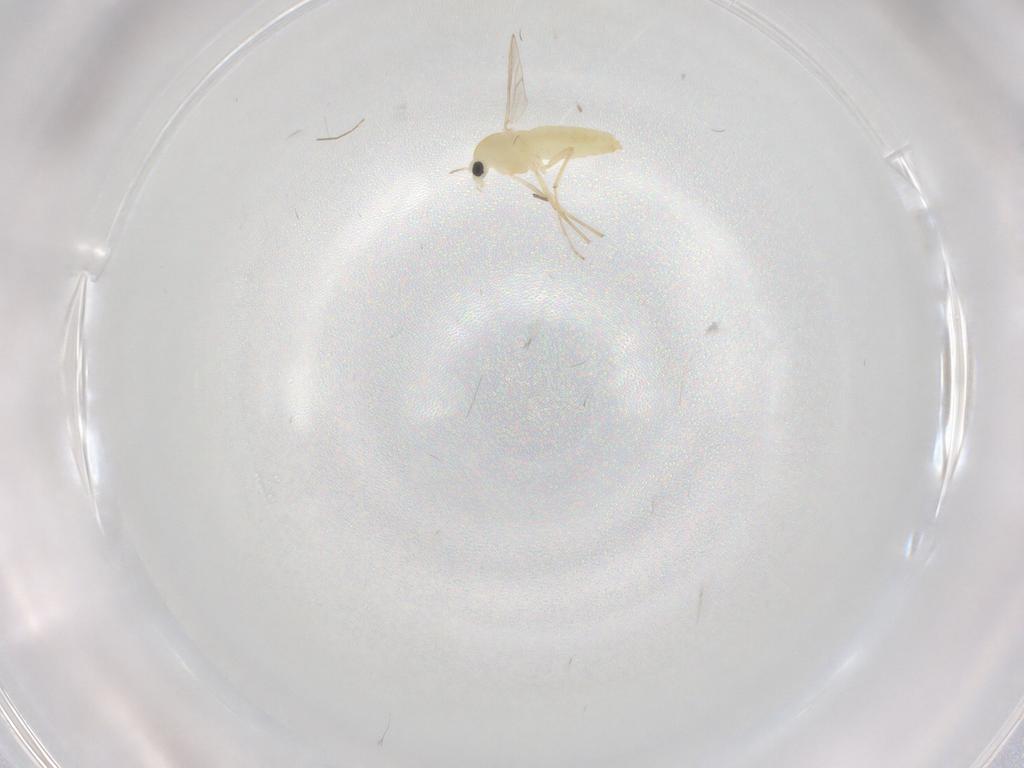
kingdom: Animalia
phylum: Arthropoda
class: Insecta
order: Diptera
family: Chironomidae
